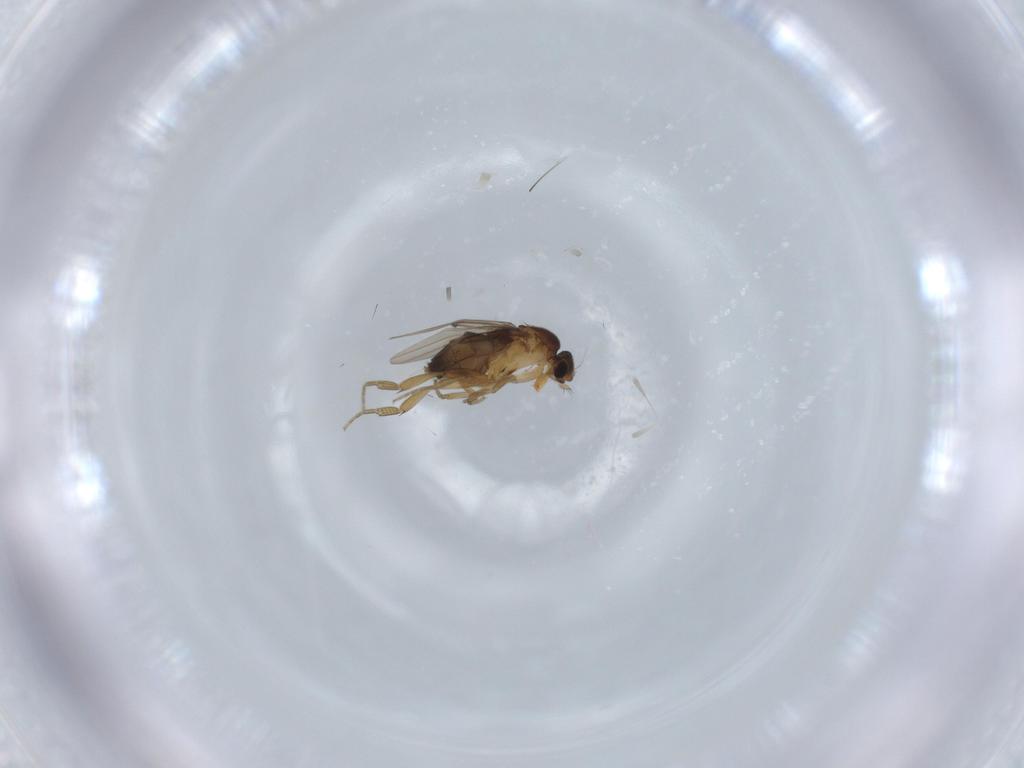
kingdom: Animalia
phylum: Arthropoda
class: Insecta
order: Diptera
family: Phoridae
